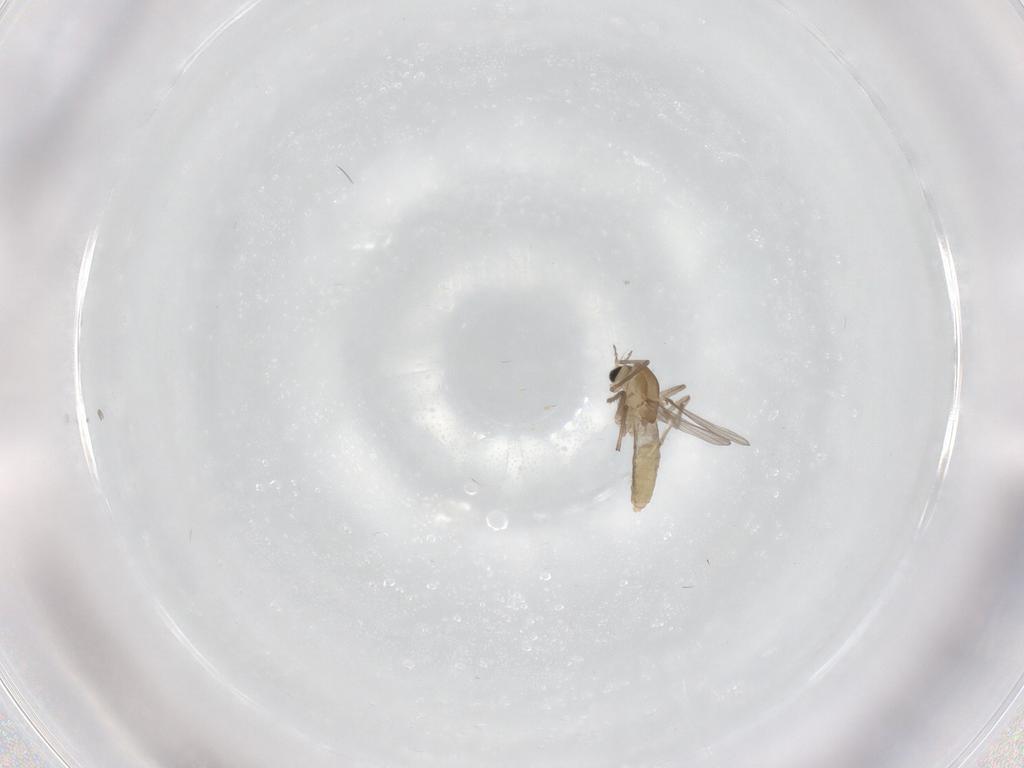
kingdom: Animalia
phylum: Arthropoda
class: Insecta
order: Diptera
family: Chironomidae
